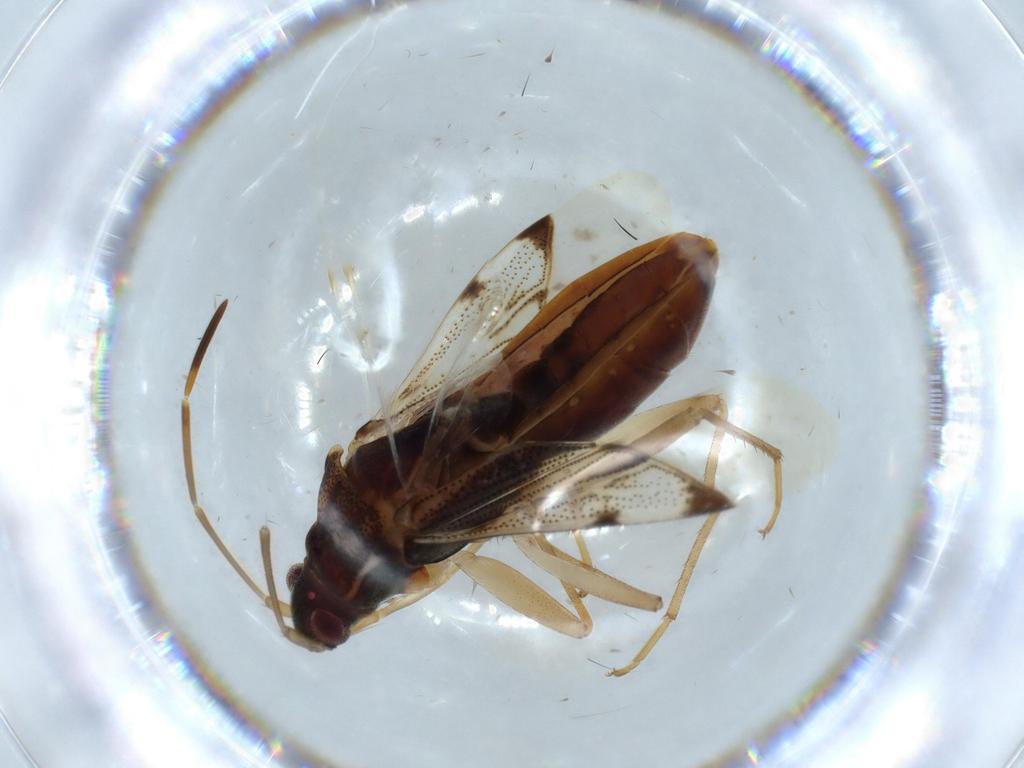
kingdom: Animalia
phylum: Arthropoda
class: Insecta
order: Hemiptera
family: Rhyparochromidae
